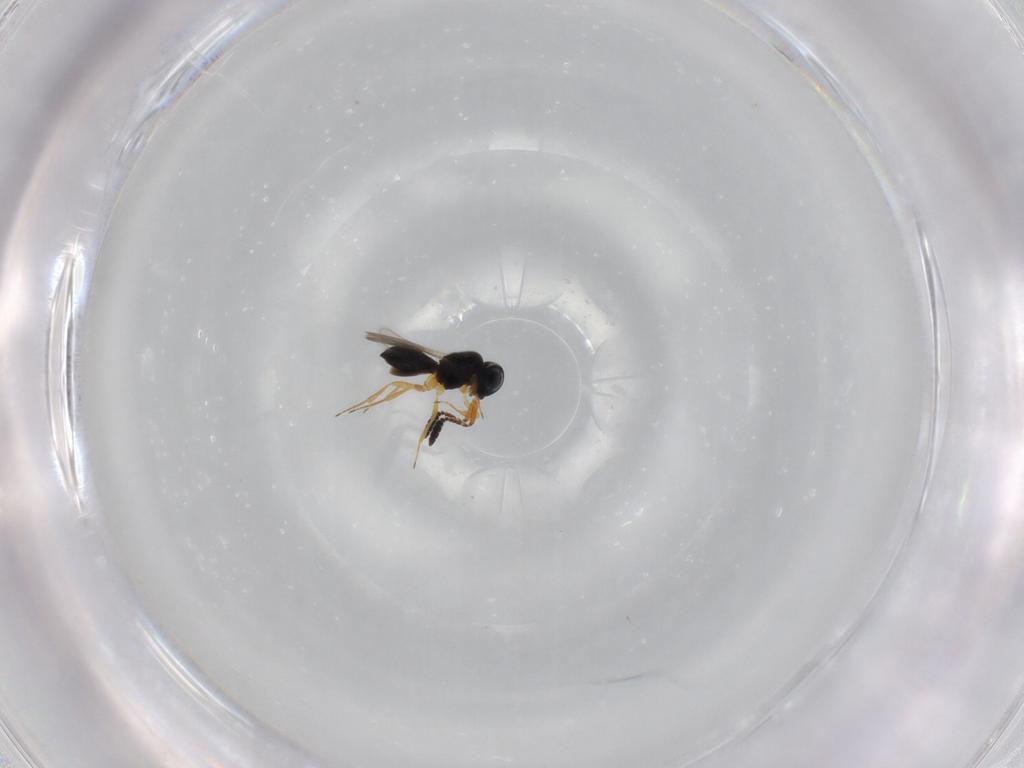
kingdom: Animalia
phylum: Arthropoda
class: Insecta
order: Hymenoptera
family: Scelionidae
